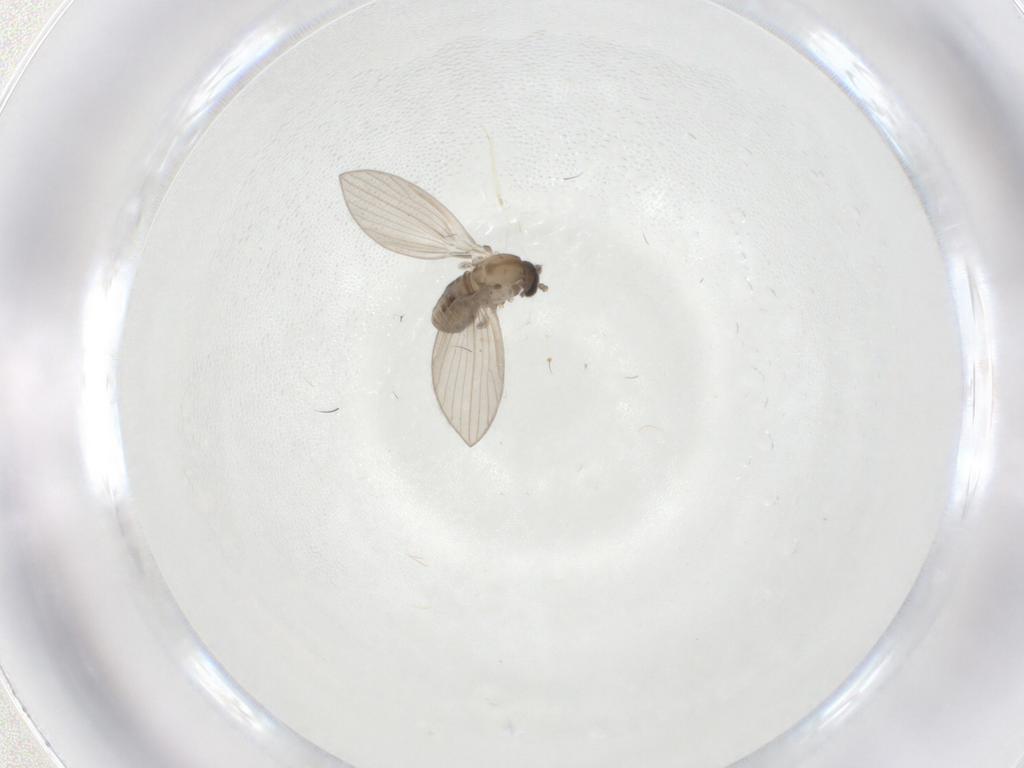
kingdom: Animalia
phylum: Arthropoda
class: Insecta
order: Diptera
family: Psychodidae
